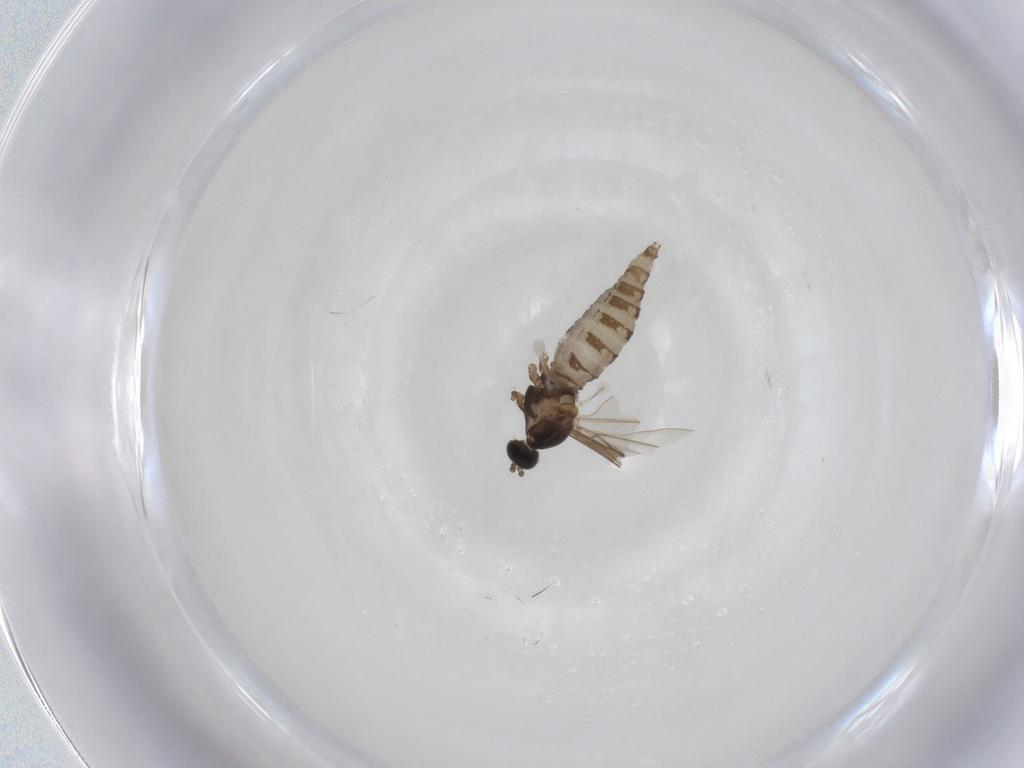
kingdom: Animalia
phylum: Arthropoda
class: Insecta
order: Diptera
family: Cecidomyiidae
